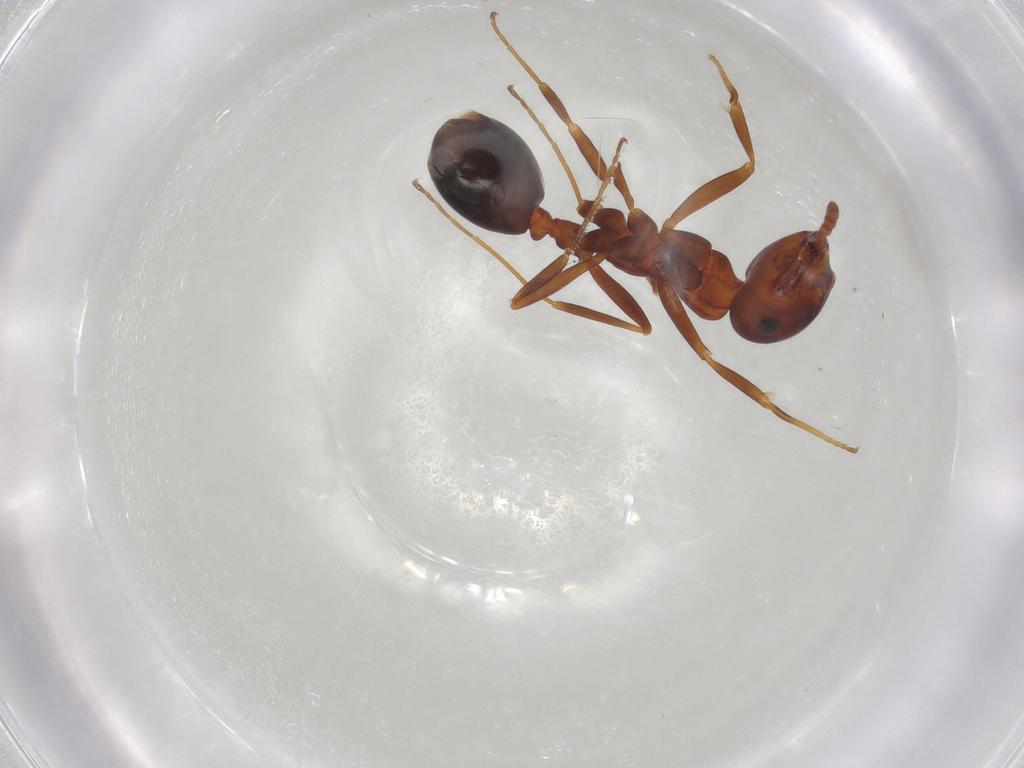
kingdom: Animalia
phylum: Arthropoda
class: Insecta
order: Hymenoptera
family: Formicidae
